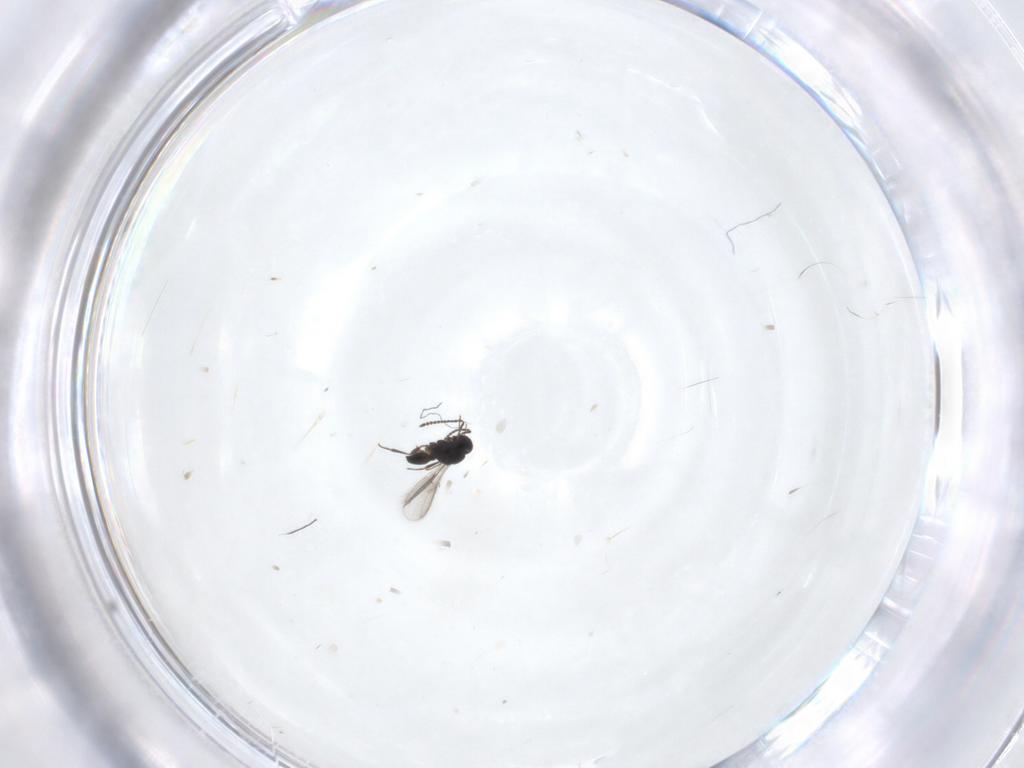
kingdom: Animalia
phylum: Arthropoda
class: Insecta
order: Hymenoptera
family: Scelionidae
